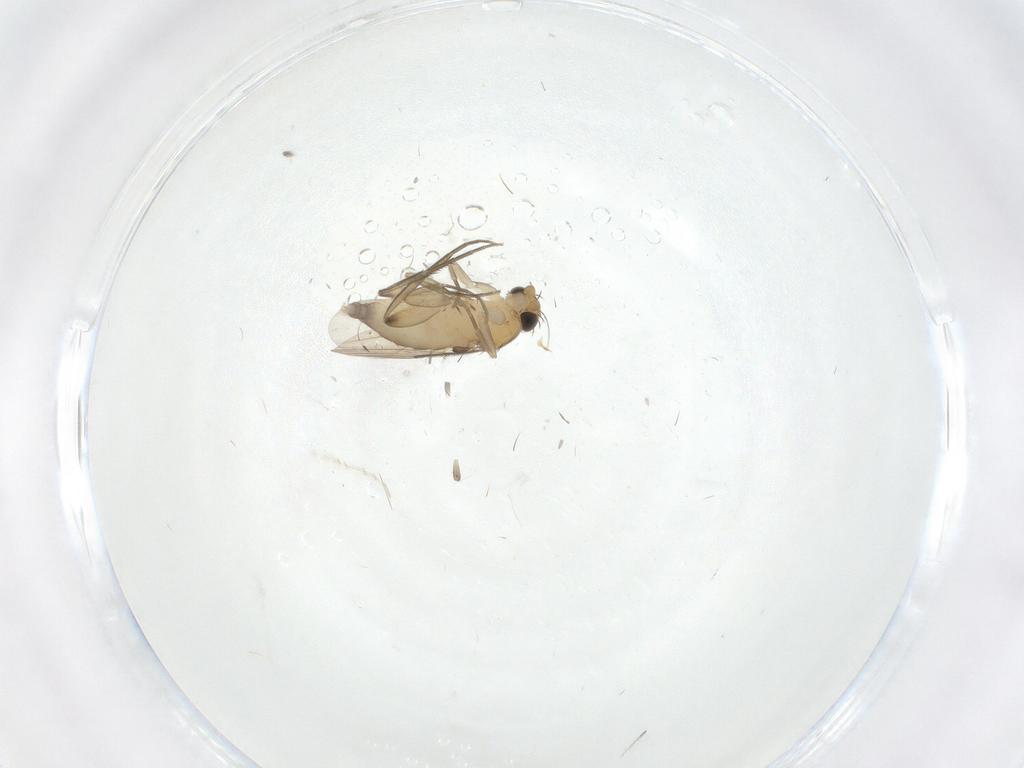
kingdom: Animalia
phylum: Arthropoda
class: Insecta
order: Diptera
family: Phoridae
